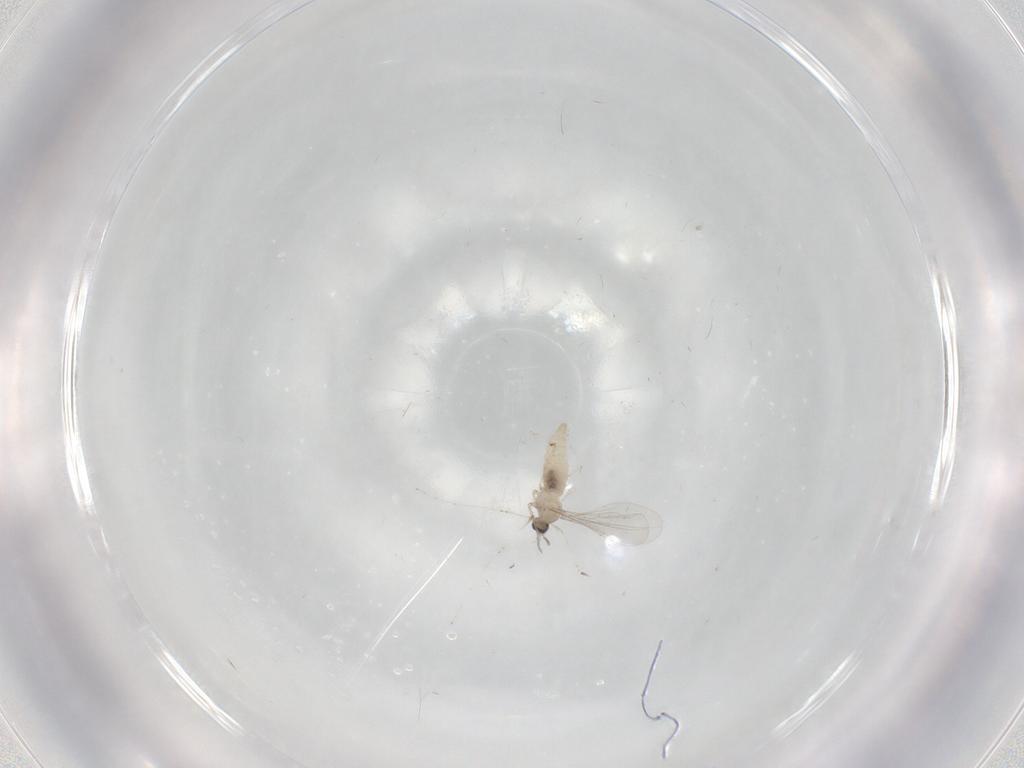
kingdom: Animalia
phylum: Arthropoda
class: Insecta
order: Diptera
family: Cecidomyiidae
